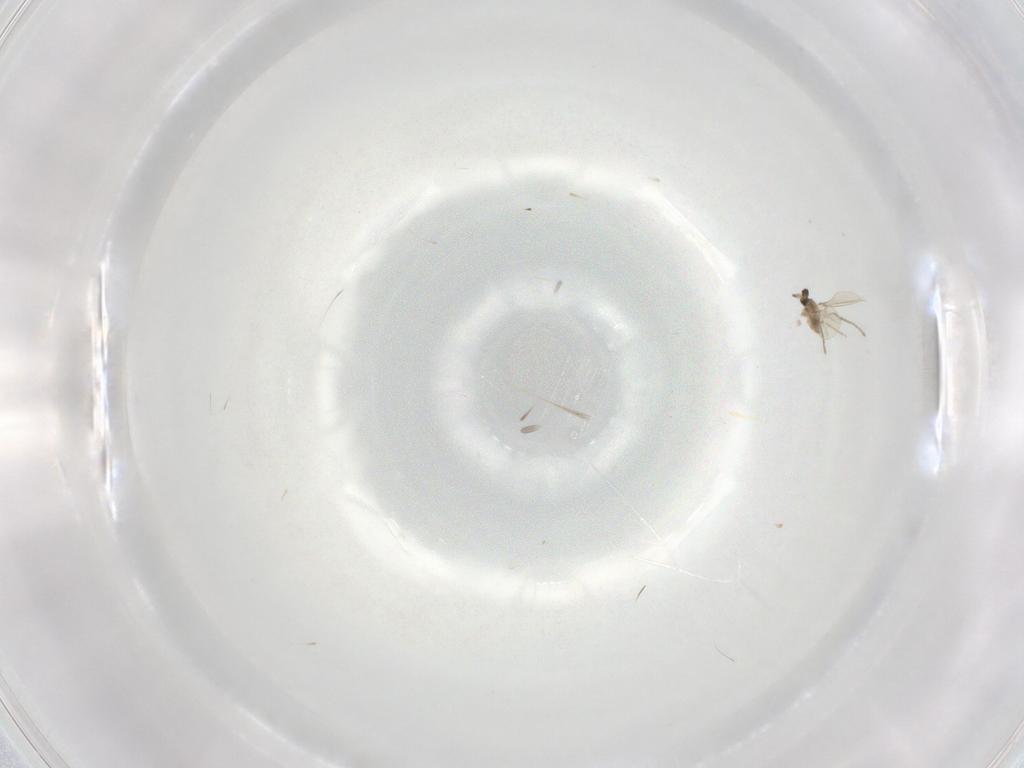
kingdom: Animalia
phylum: Arthropoda
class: Insecta
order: Diptera
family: Cecidomyiidae
